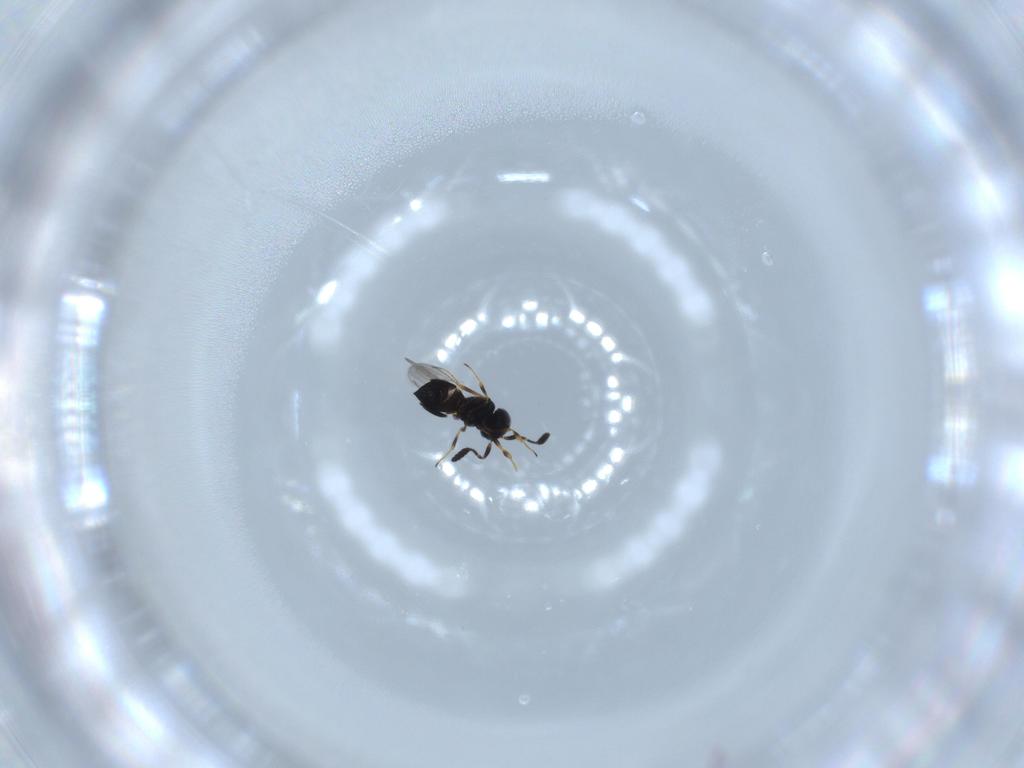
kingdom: Animalia
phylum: Arthropoda
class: Insecta
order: Hymenoptera
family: Scelionidae
